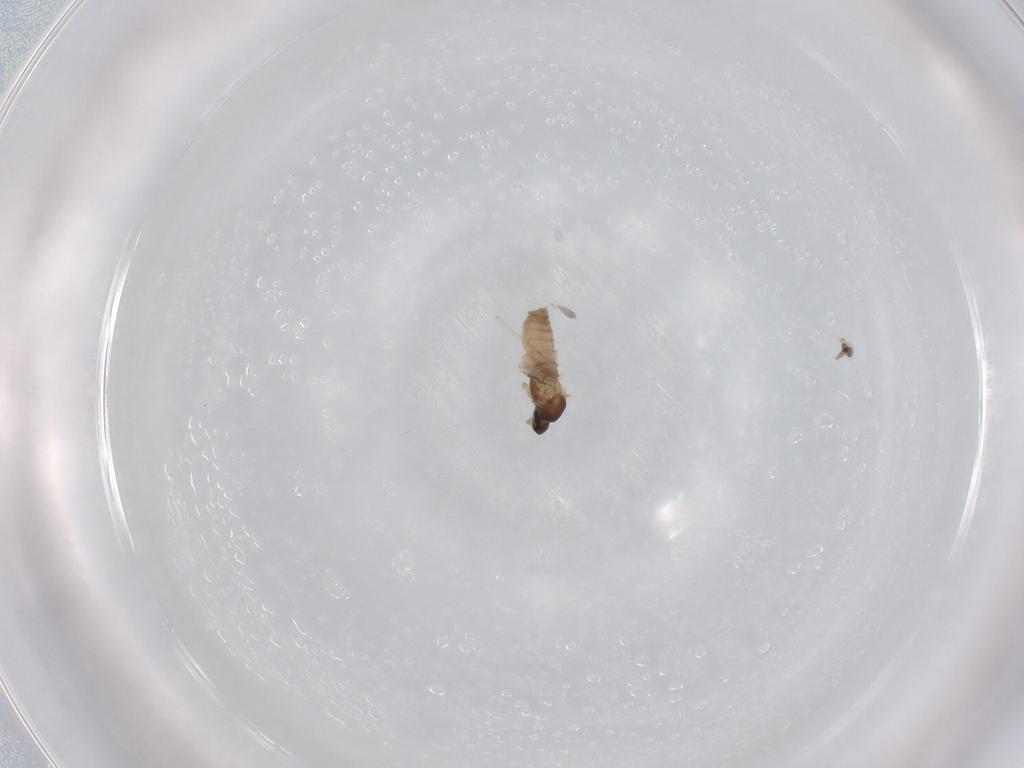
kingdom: Animalia
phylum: Arthropoda
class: Insecta
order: Diptera
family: Cecidomyiidae
